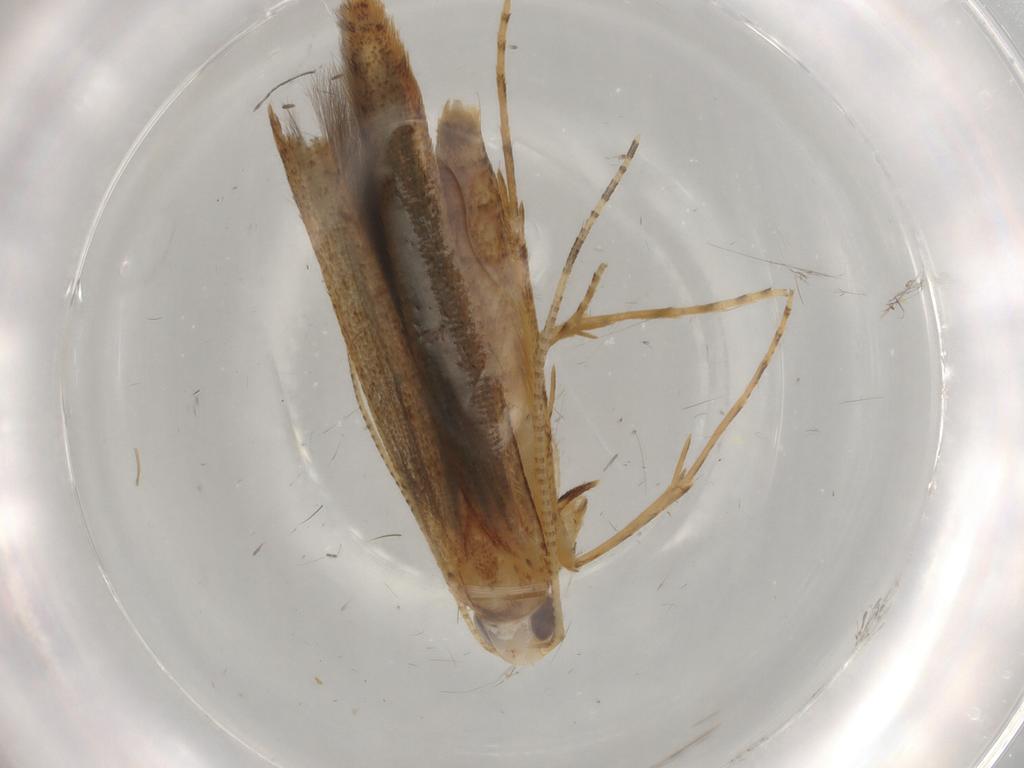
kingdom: Animalia
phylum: Arthropoda
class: Insecta
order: Lepidoptera
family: Batrachedridae
